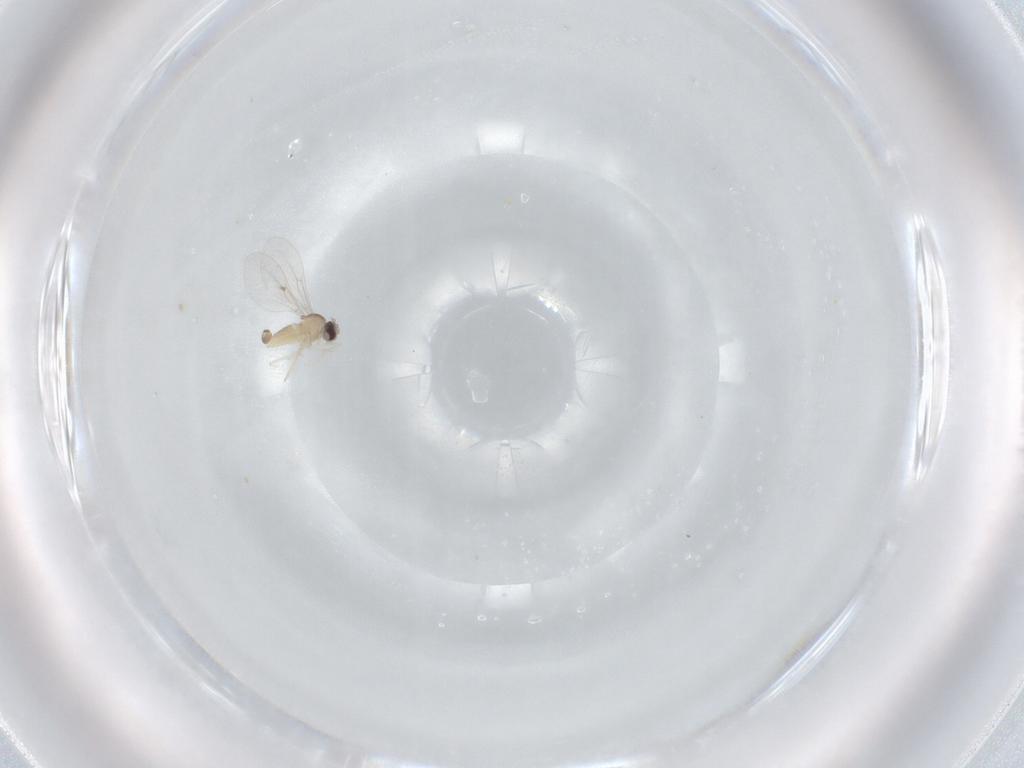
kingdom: Animalia
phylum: Arthropoda
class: Insecta
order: Diptera
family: Cecidomyiidae
